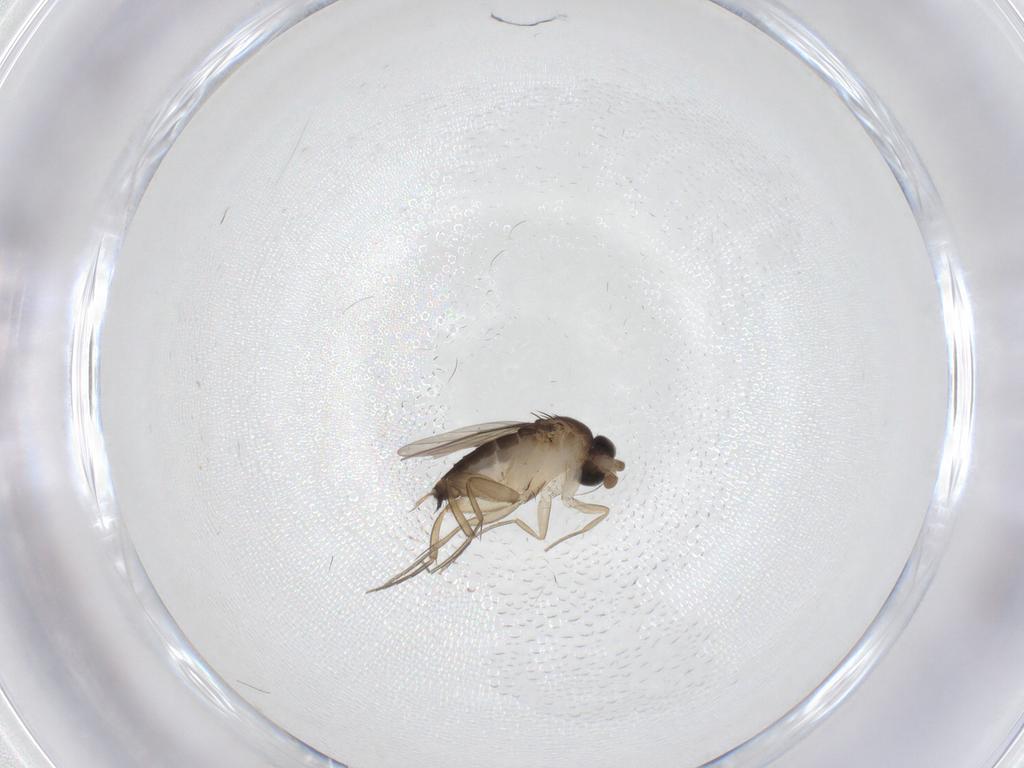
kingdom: Animalia
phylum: Arthropoda
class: Insecta
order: Diptera
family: Phoridae
